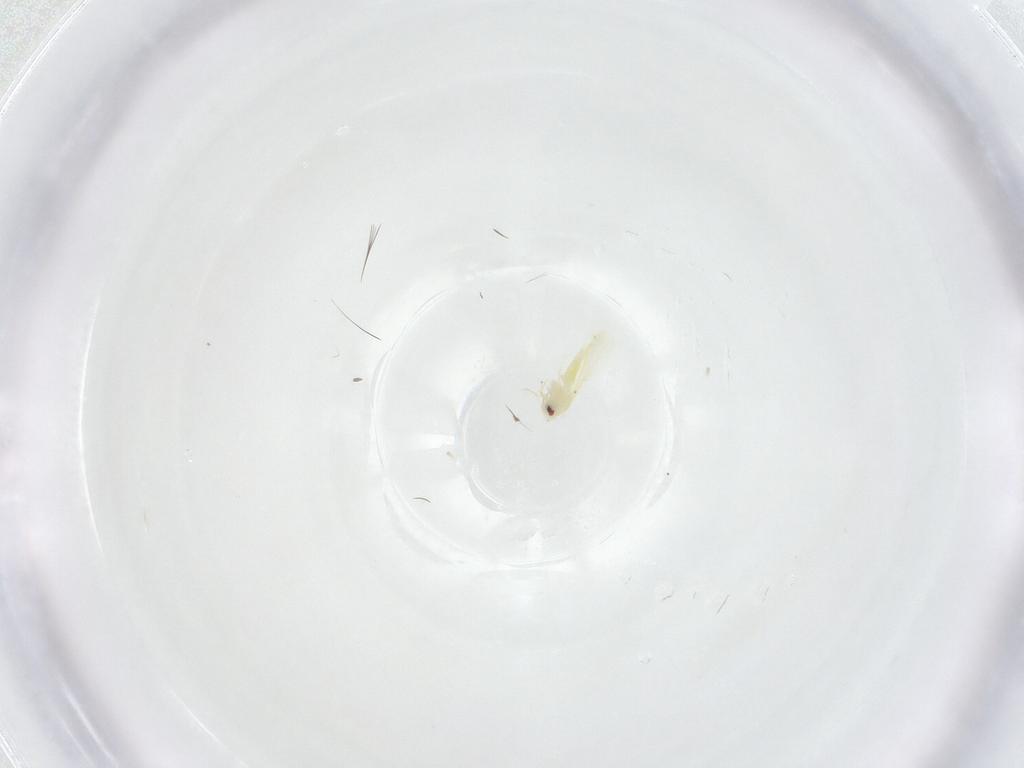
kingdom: Animalia
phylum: Arthropoda
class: Insecta
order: Hemiptera
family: Aleyrodidae
